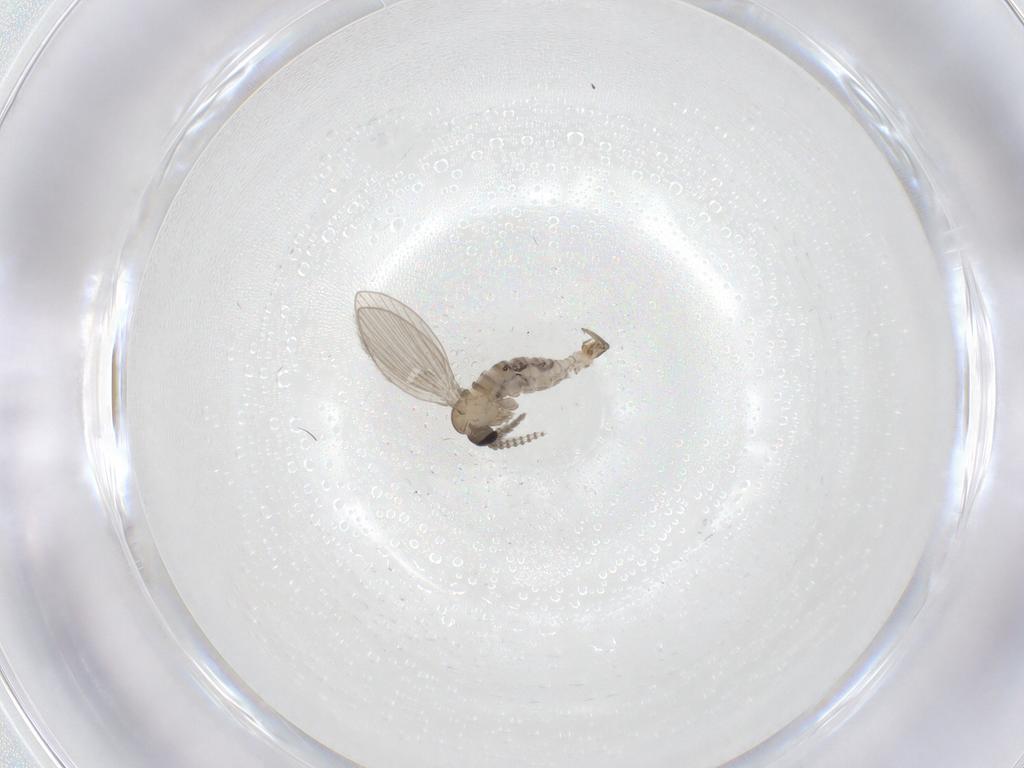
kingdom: Animalia
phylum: Arthropoda
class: Insecta
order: Diptera
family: Psychodidae
